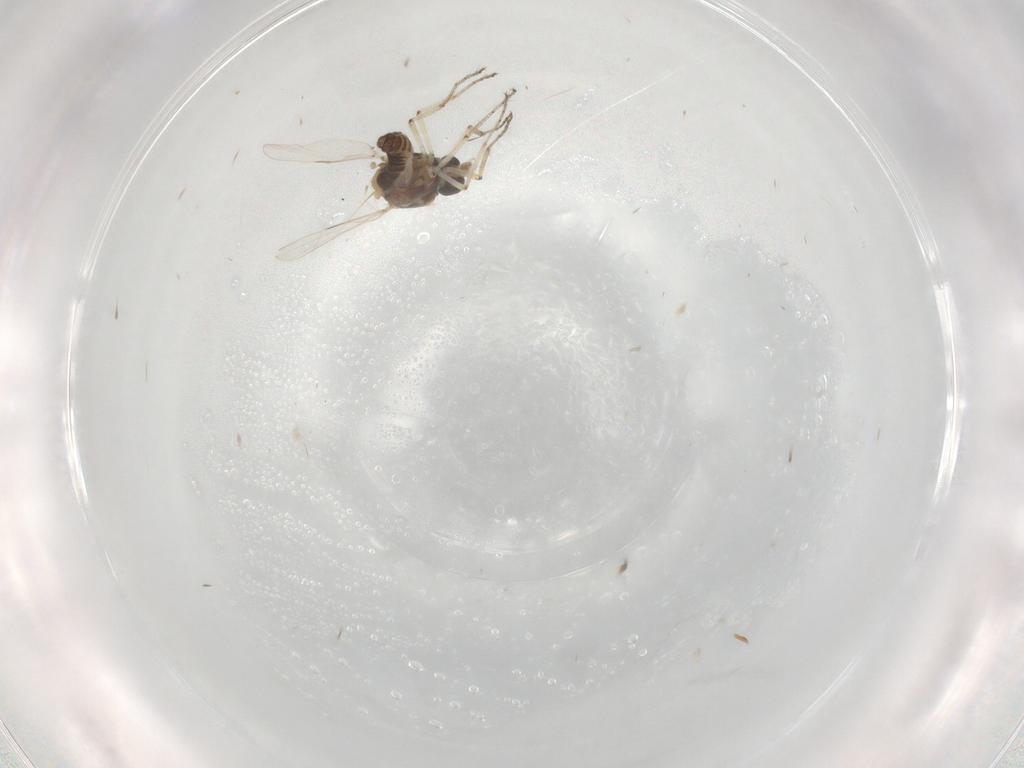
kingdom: Animalia
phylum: Arthropoda
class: Insecta
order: Diptera
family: Ceratopogonidae
